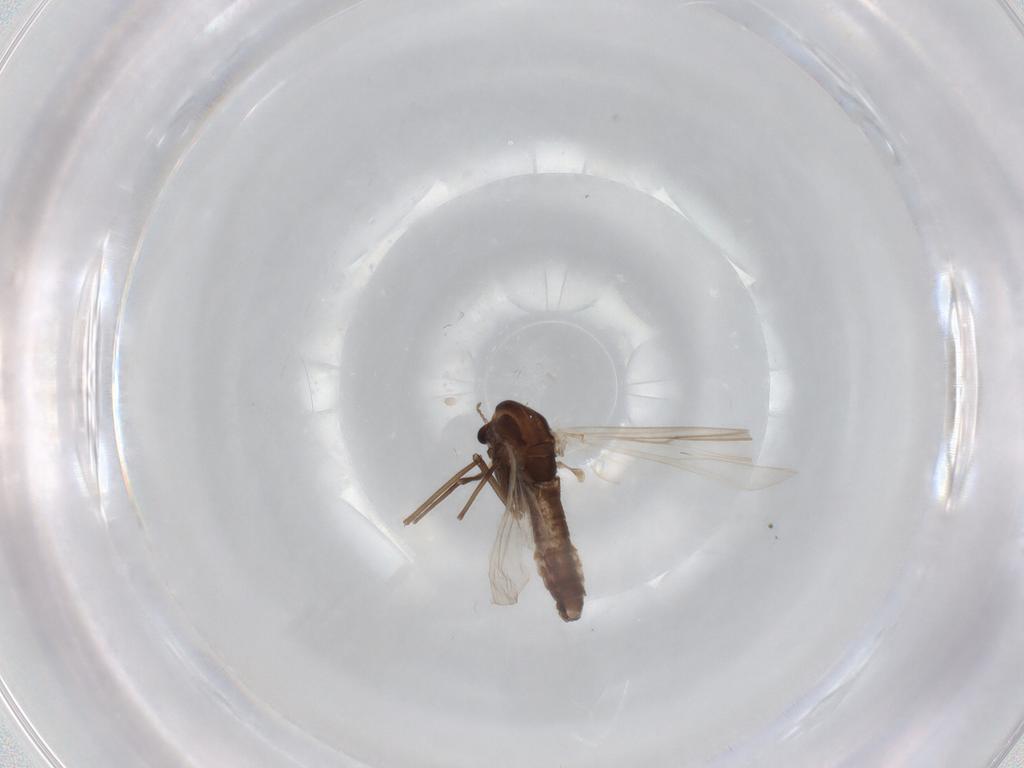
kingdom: Animalia
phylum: Arthropoda
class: Insecta
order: Diptera
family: Chironomidae
